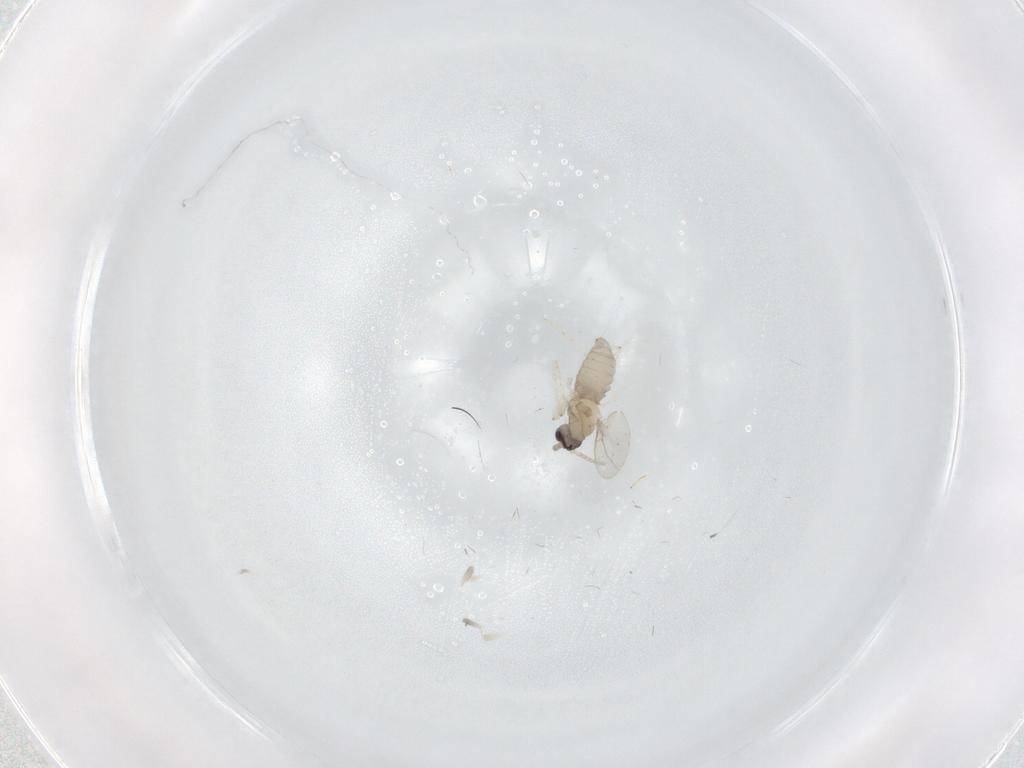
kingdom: Animalia
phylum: Arthropoda
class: Insecta
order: Diptera
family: Cecidomyiidae
